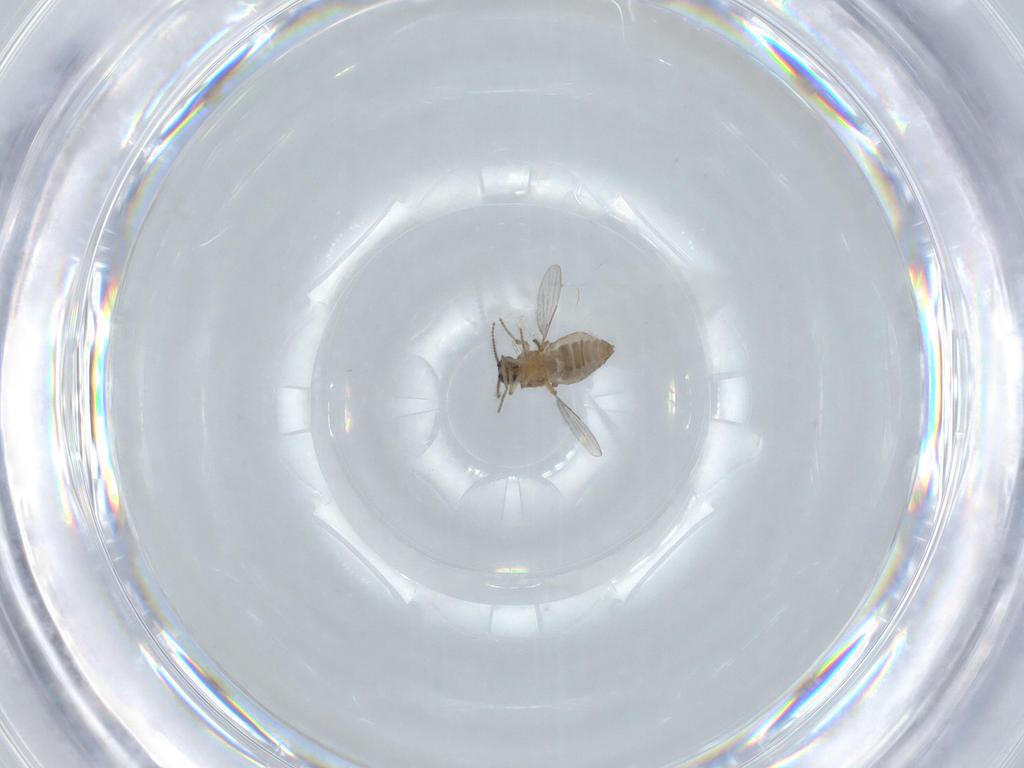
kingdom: Animalia
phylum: Arthropoda
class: Insecta
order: Diptera
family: Ceratopogonidae
